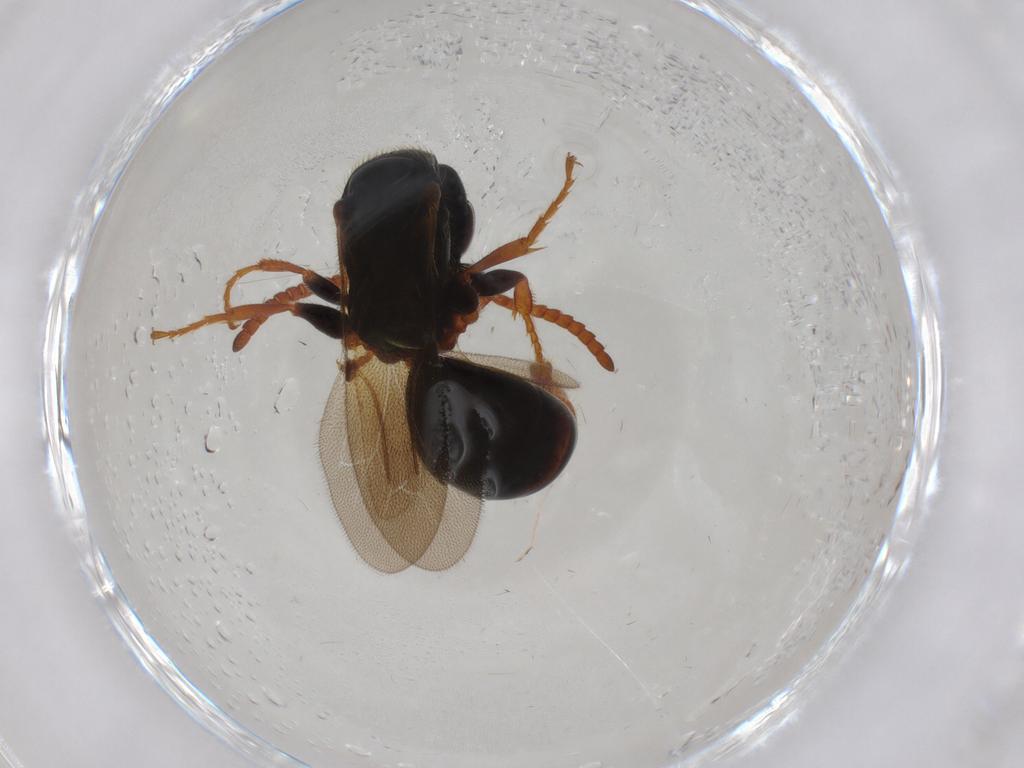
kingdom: Animalia
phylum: Arthropoda
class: Insecta
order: Hymenoptera
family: Bethylidae
